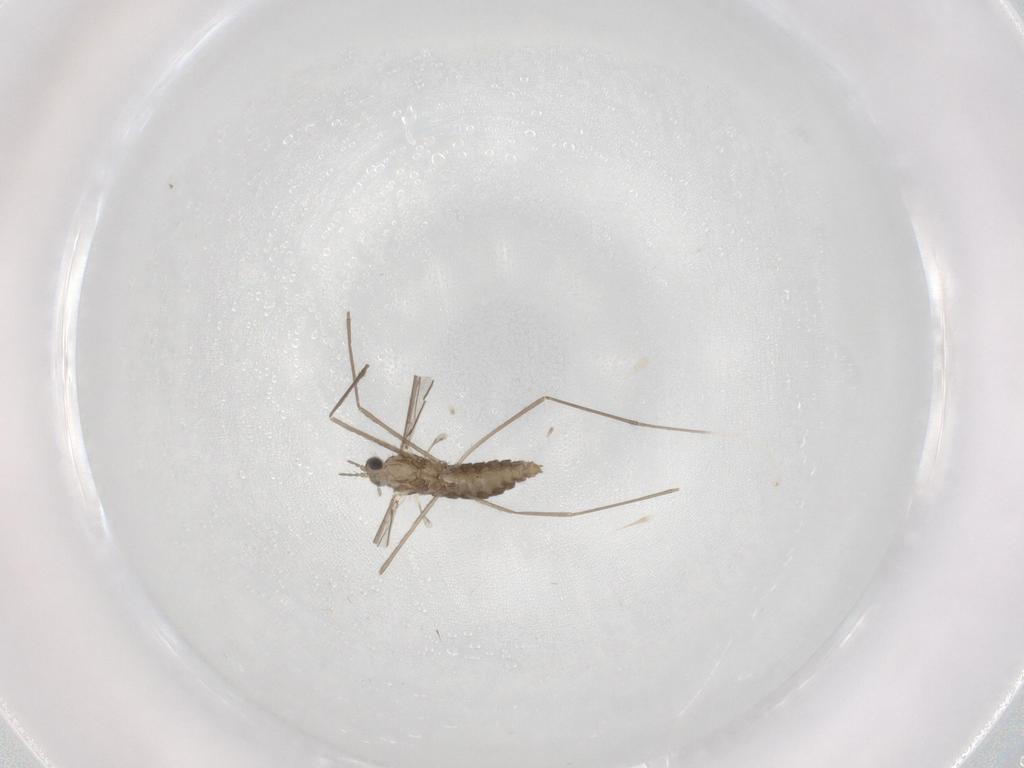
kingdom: Animalia
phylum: Arthropoda
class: Insecta
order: Diptera
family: Cecidomyiidae
